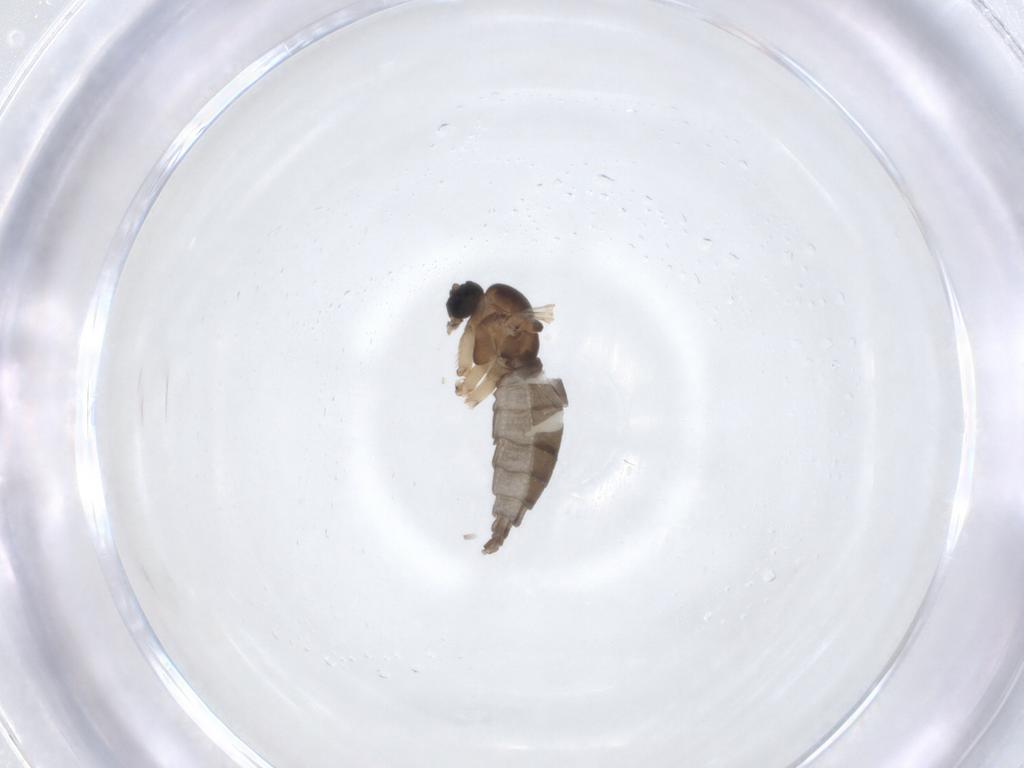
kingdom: Animalia
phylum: Arthropoda
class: Insecta
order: Diptera
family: Sciaridae
